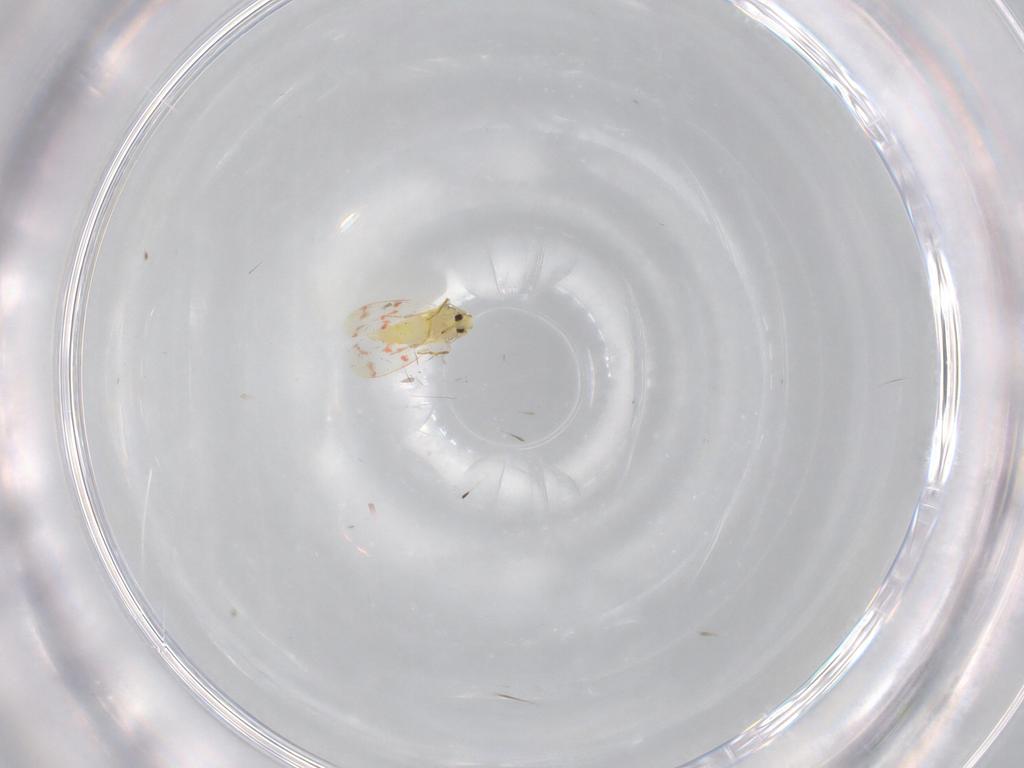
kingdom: Animalia
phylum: Arthropoda
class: Insecta
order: Hemiptera
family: Aleyrodidae
